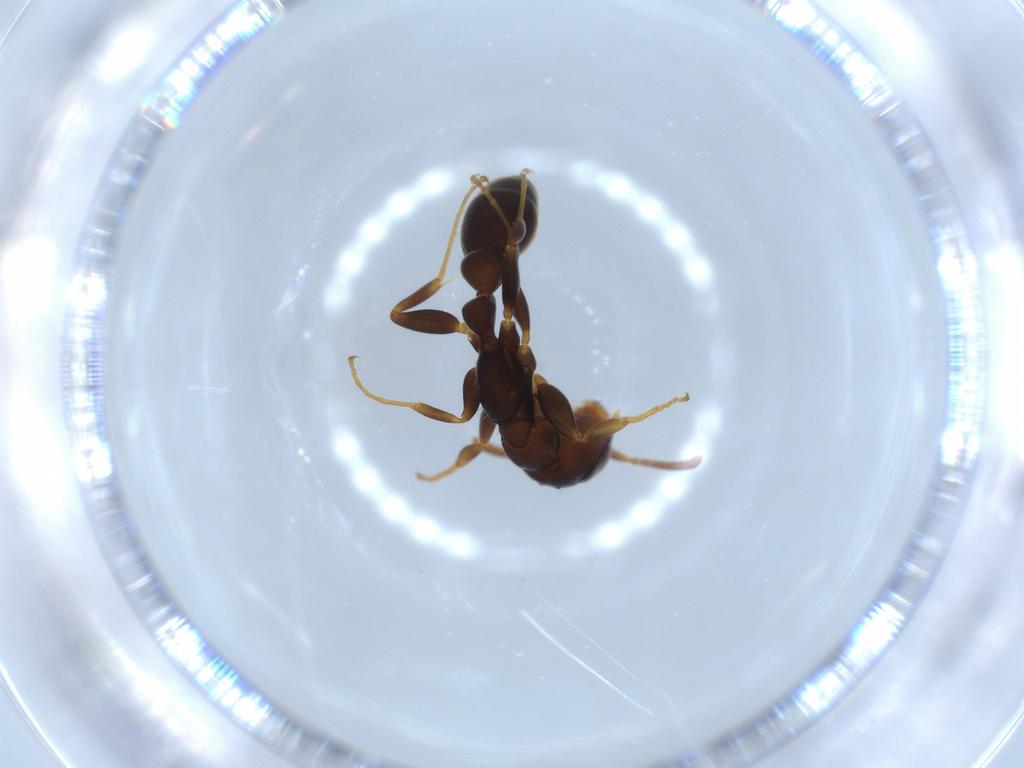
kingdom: Animalia
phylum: Arthropoda
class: Insecta
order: Hymenoptera
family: Formicidae
